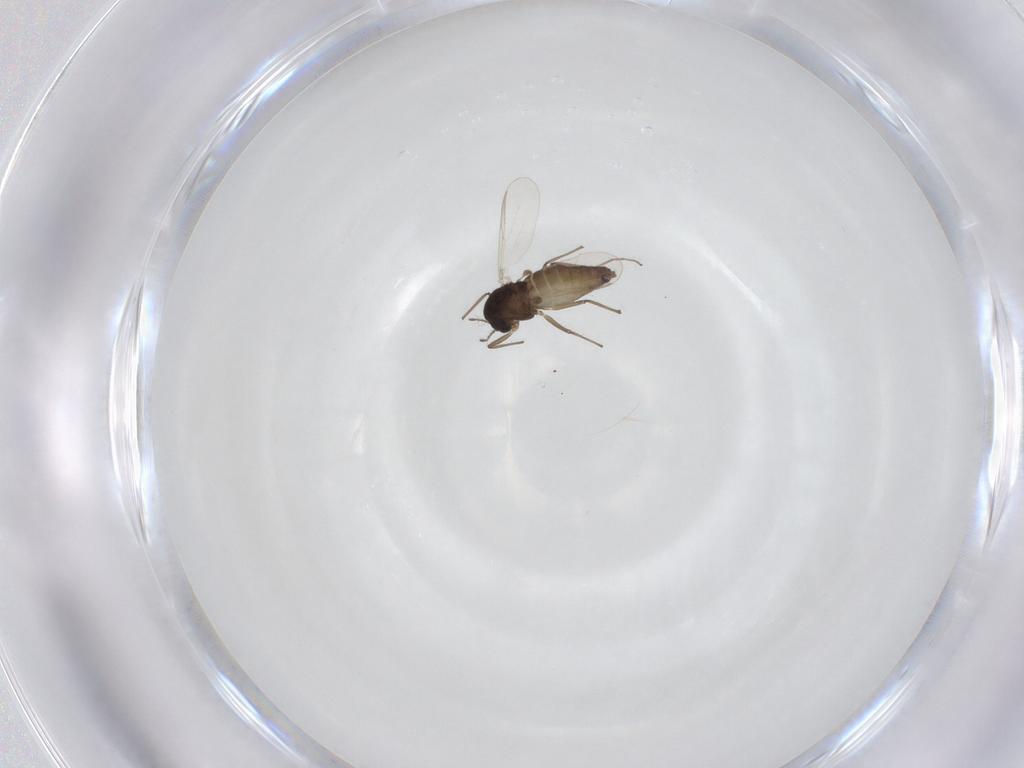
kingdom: Animalia
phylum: Arthropoda
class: Insecta
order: Diptera
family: Chironomidae
